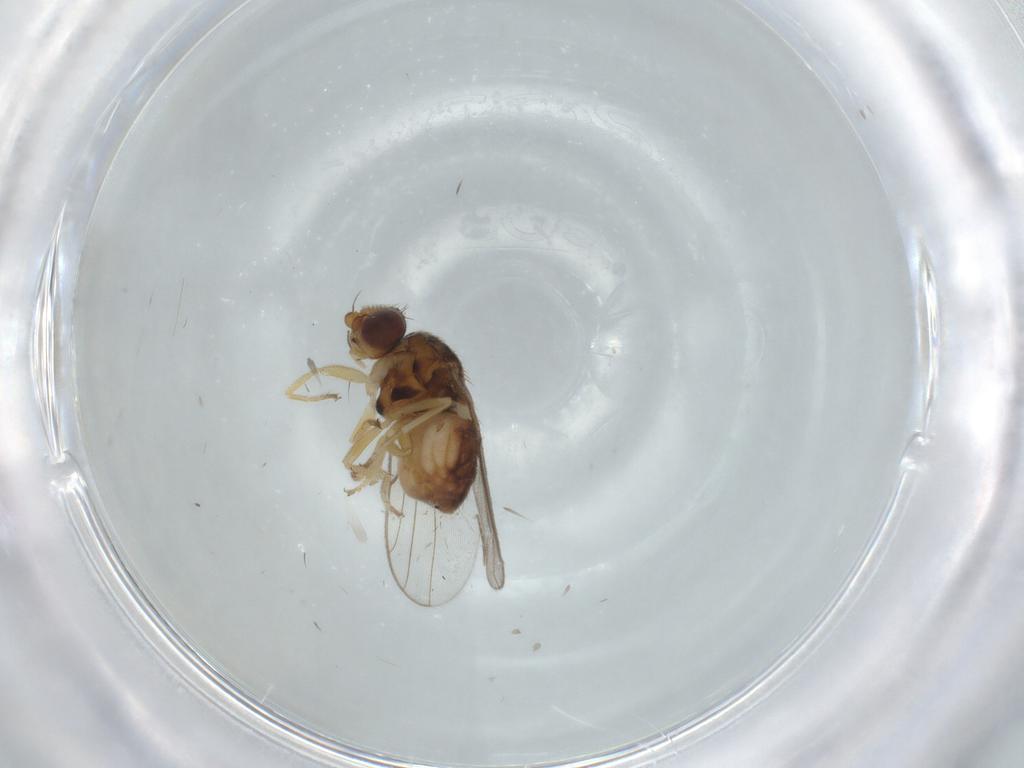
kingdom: Animalia
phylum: Arthropoda
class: Insecta
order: Diptera
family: Chloropidae
